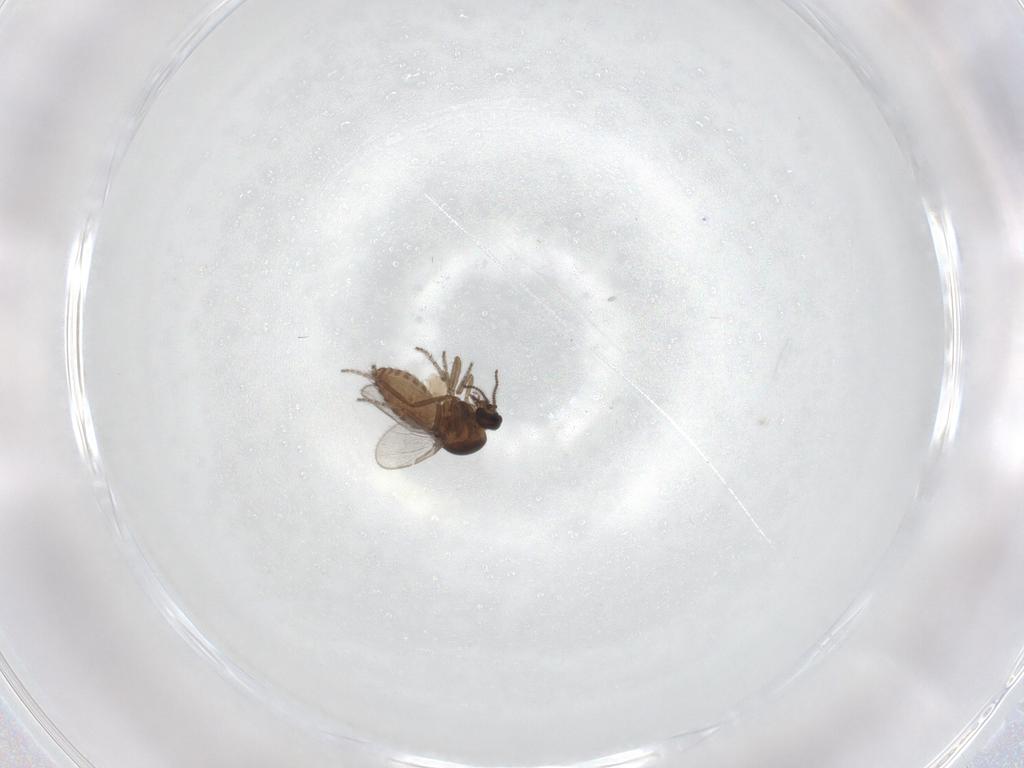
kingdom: Animalia
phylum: Arthropoda
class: Insecta
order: Diptera
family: Ceratopogonidae
